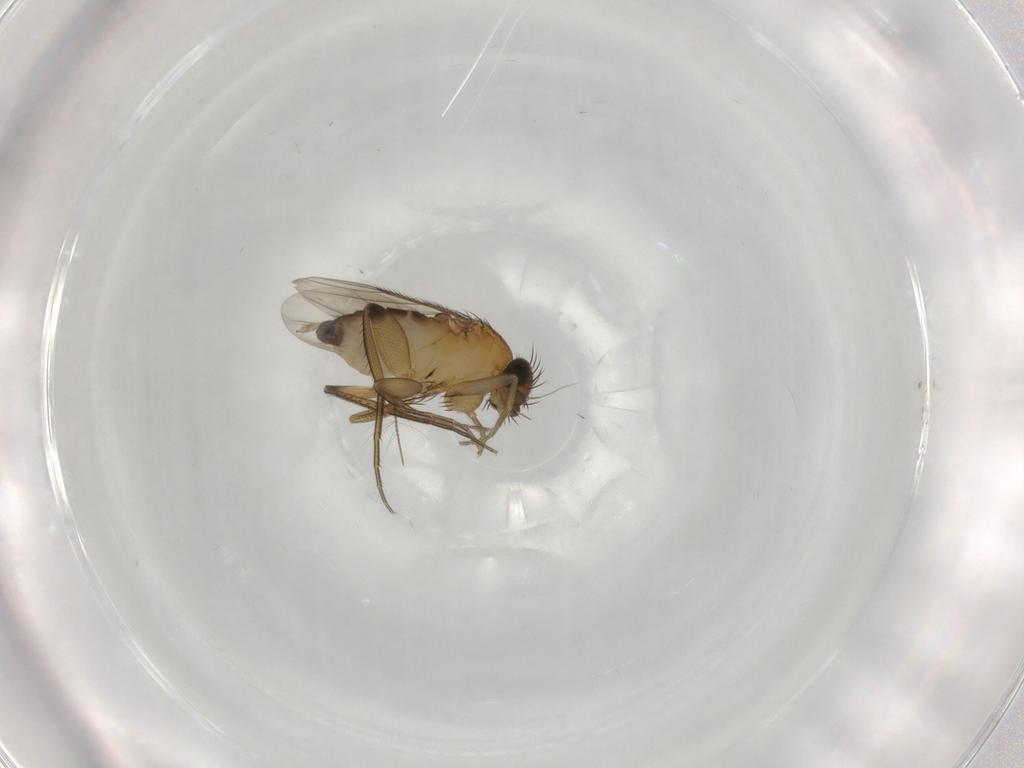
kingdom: Animalia
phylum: Arthropoda
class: Insecta
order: Diptera
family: Phoridae
